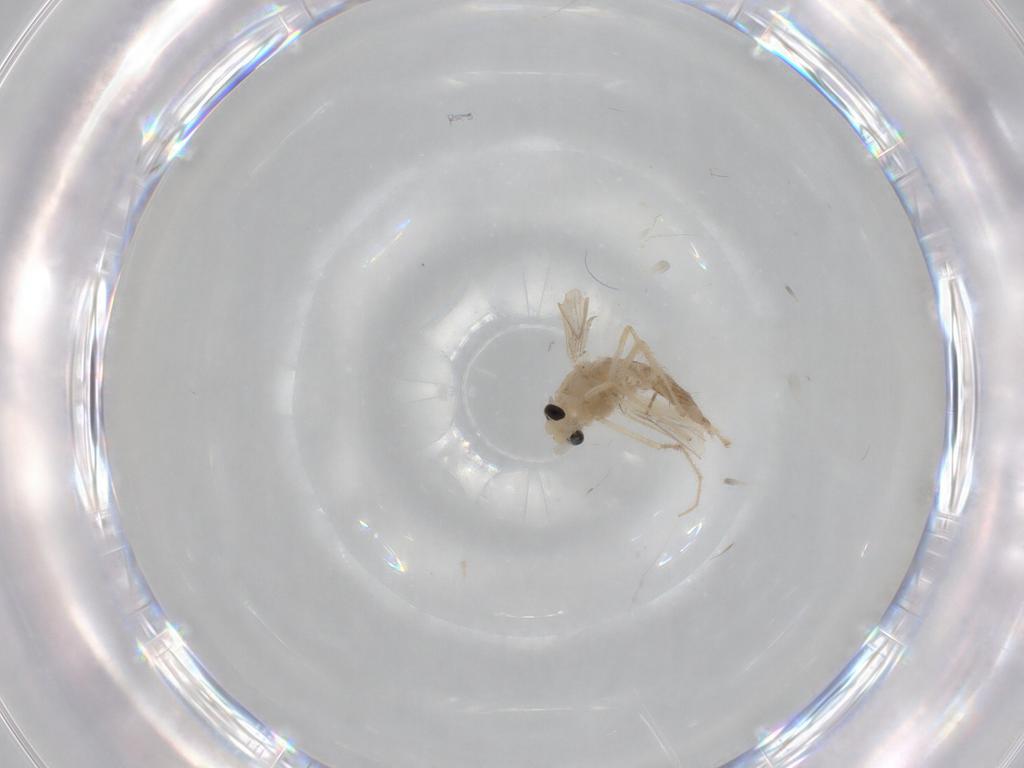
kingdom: Animalia
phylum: Arthropoda
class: Insecta
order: Diptera
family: Chironomidae
